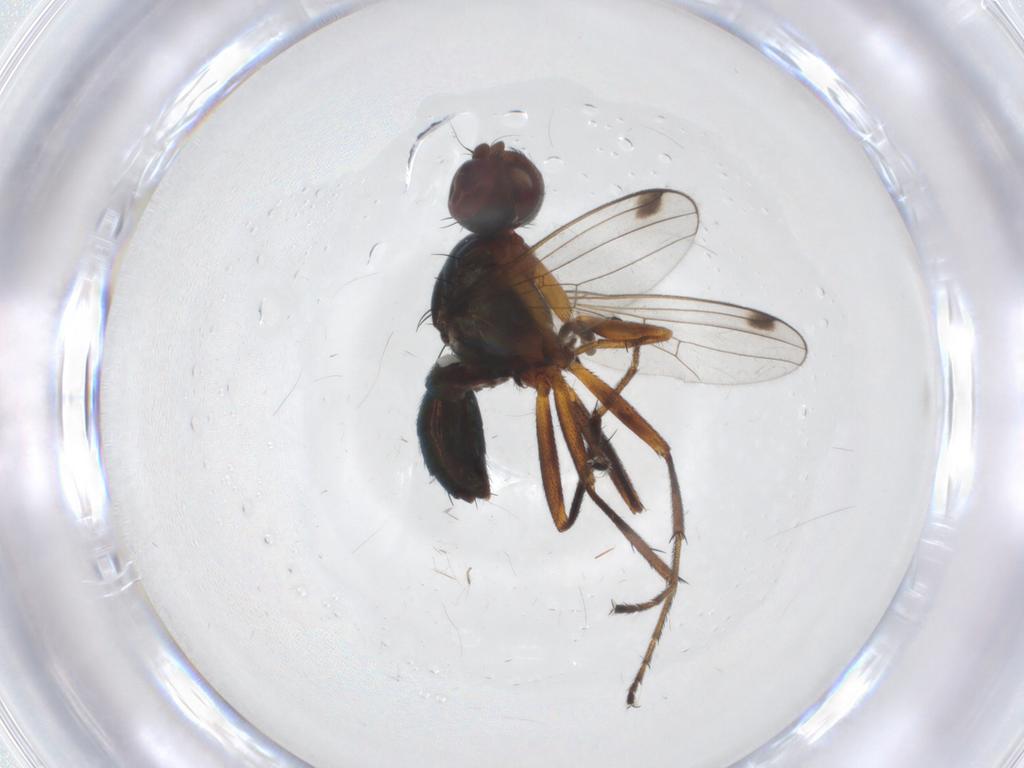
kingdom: Animalia
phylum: Arthropoda
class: Insecta
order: Diptera
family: Sepsidae
